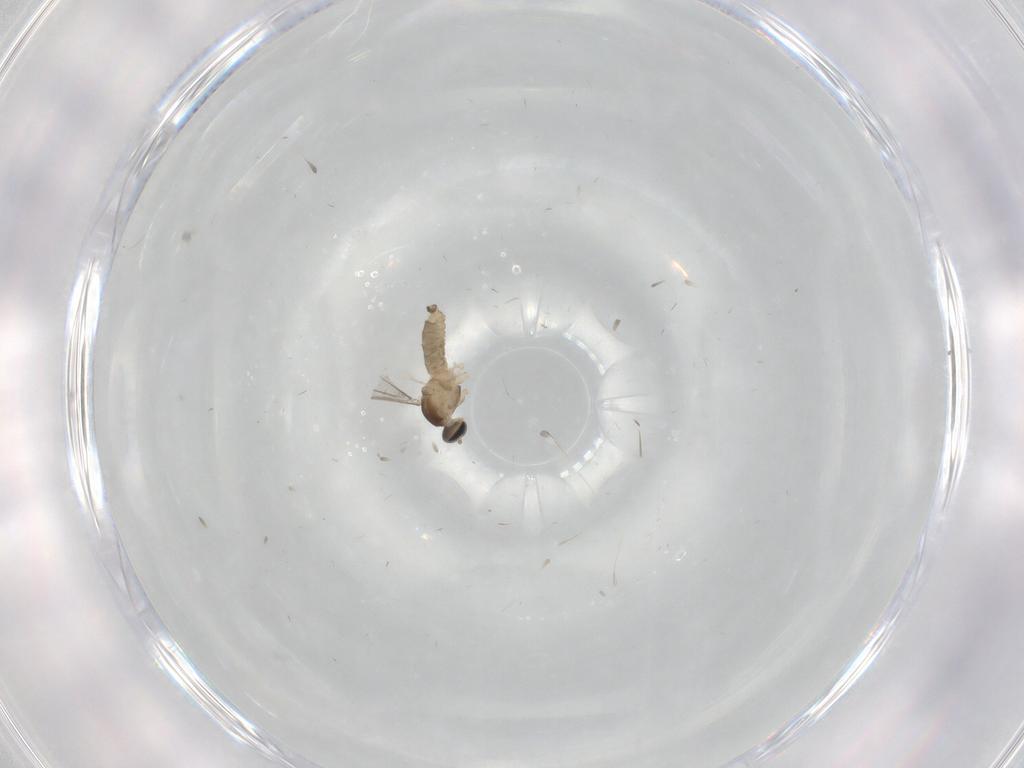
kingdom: Animalia
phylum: Arthropoda
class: Insecta
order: Diptera
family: Cecidomyiidae
